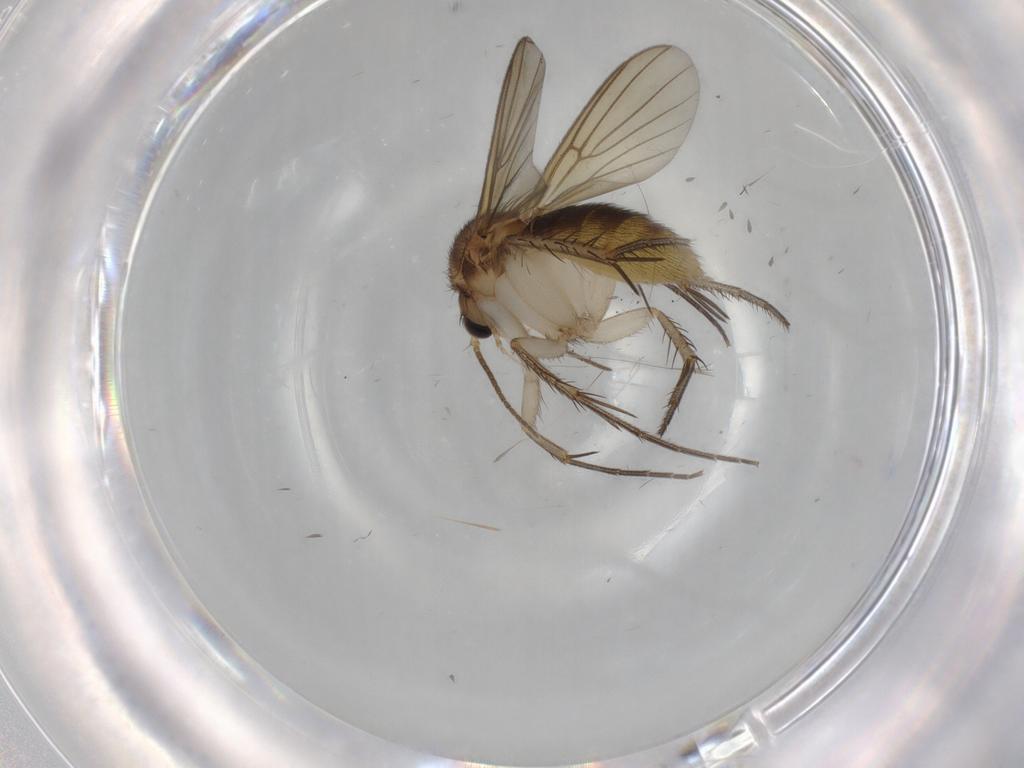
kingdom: Animalia
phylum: Arthropoda
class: Insecta
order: Diptera
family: Mycetophilidae
